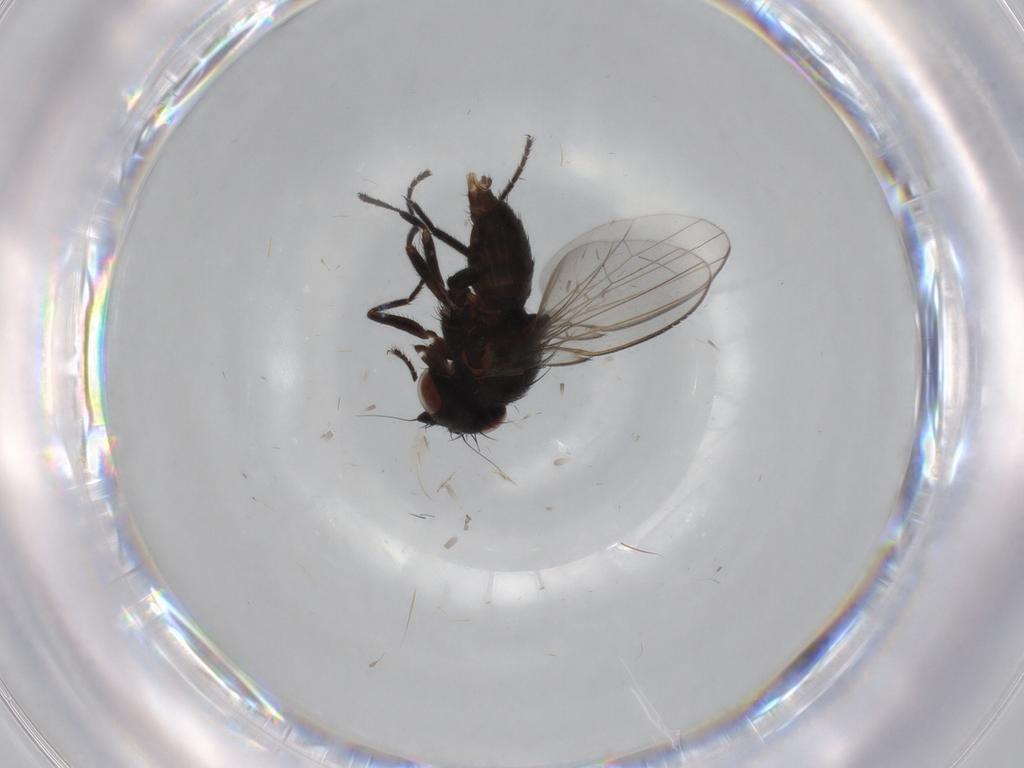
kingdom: Animalia
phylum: Arthropoda
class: Insecta
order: Diptera
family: Milichiidae
